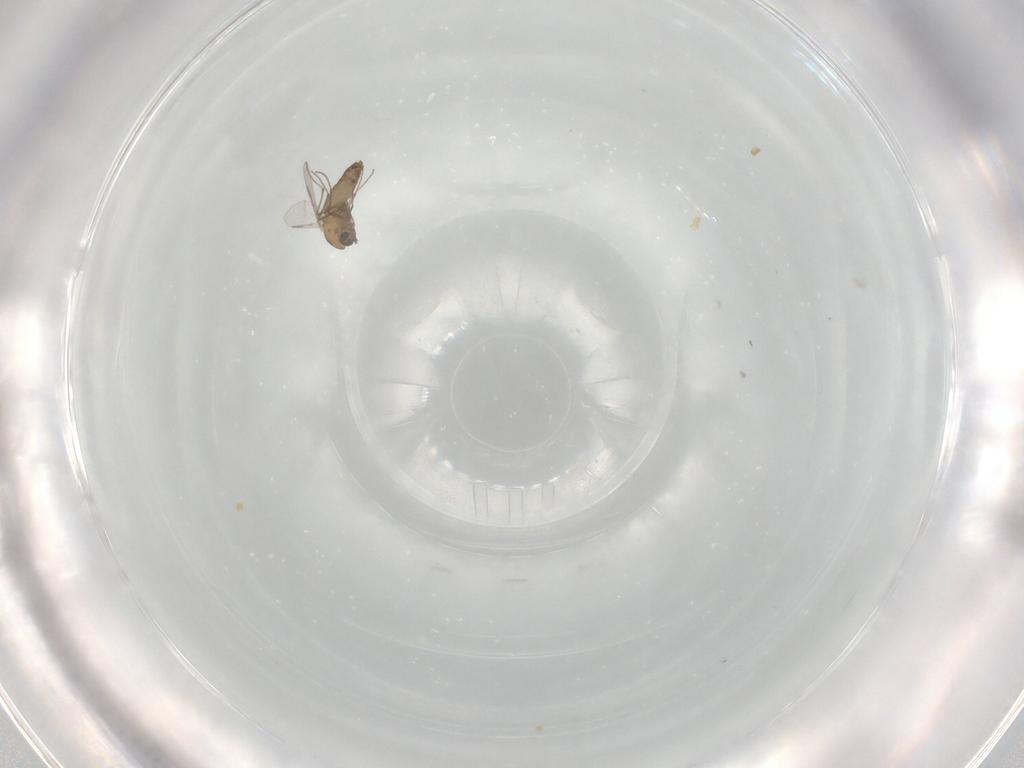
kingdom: Animalia
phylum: Arthropoda
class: Insecta
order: Diptera
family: Chironomidae
